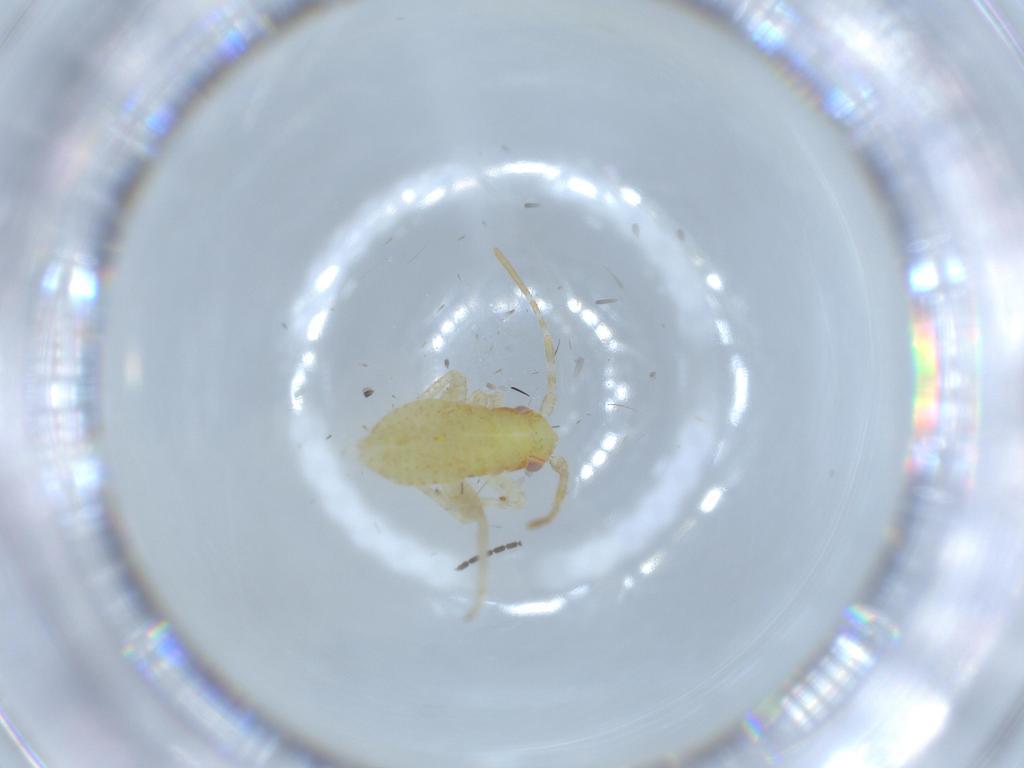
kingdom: Animalia
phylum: Arthropoda
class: Insecta
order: Hemiptera
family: Miridae
